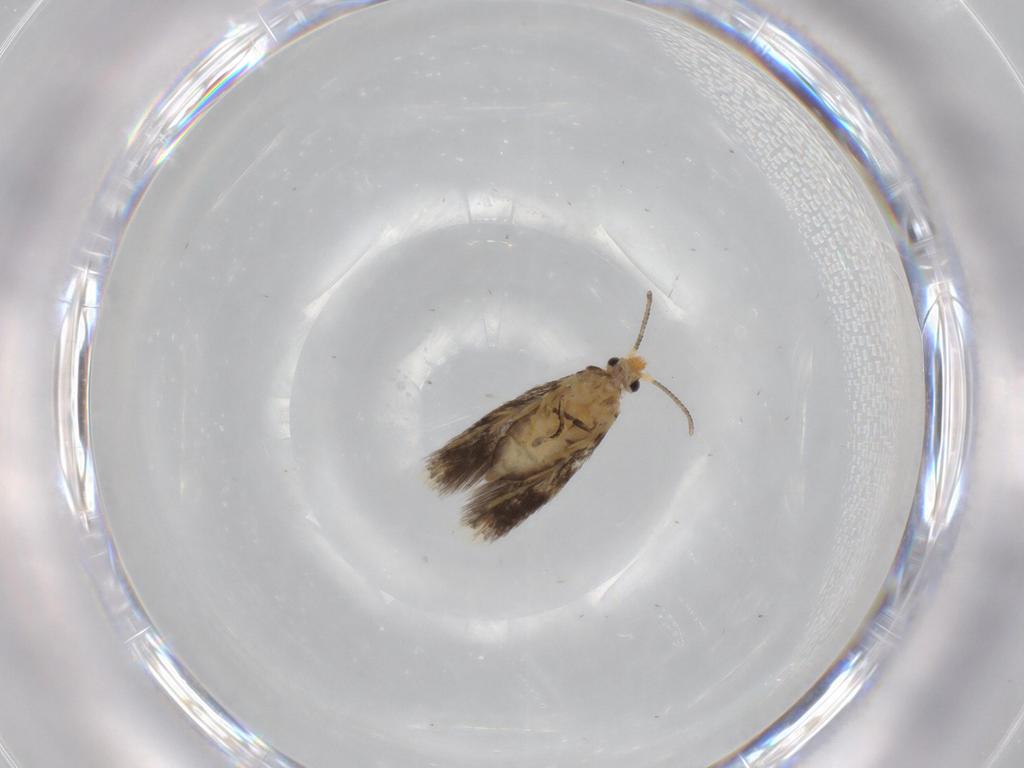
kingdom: Animalia
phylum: Arthropoda
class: Insecta
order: Lepidoptera
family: Nepticulidae
